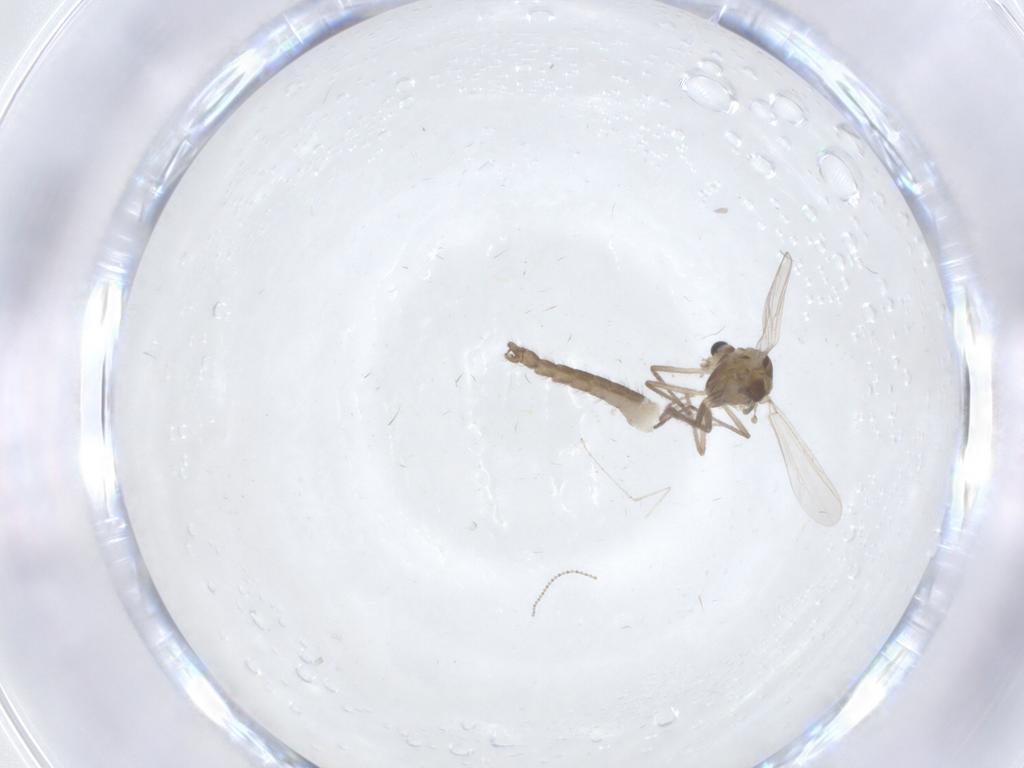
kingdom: Animalia
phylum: Arthropoda
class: Insecta
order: Diptera
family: Chironomidae
